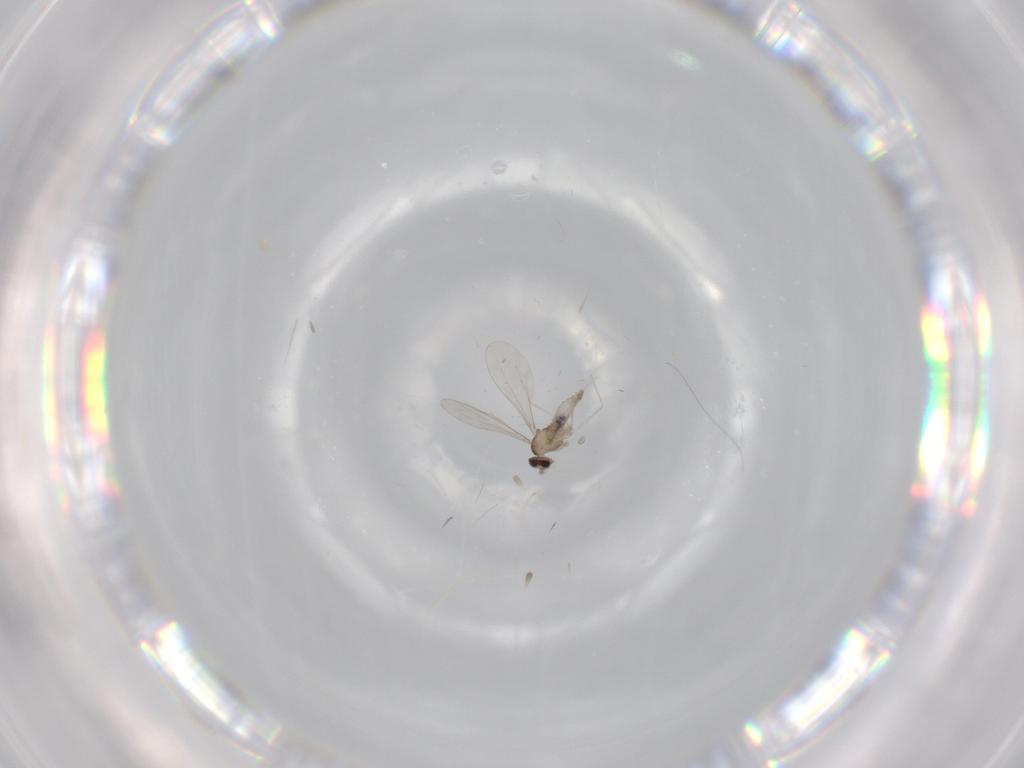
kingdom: Animalia
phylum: Arthropoda
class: Insecta
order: Diptera
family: Cecidomyiidae
